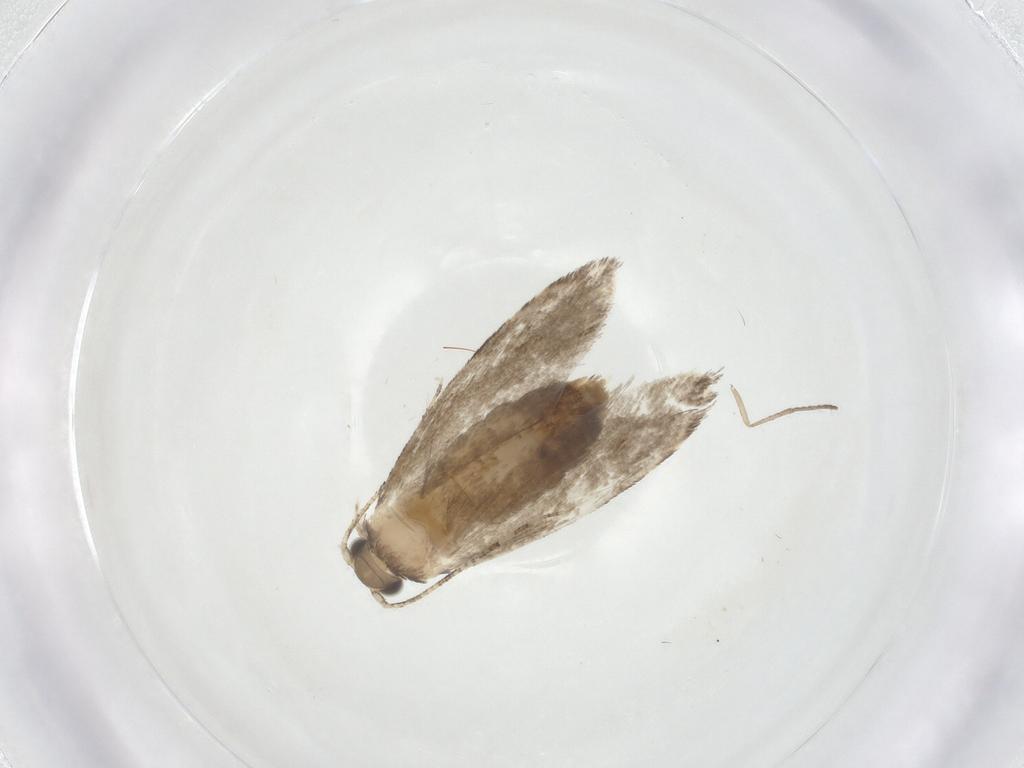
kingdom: Animalia
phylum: Arthropoda
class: Insecta
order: Lepidoptera
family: Tineidae
